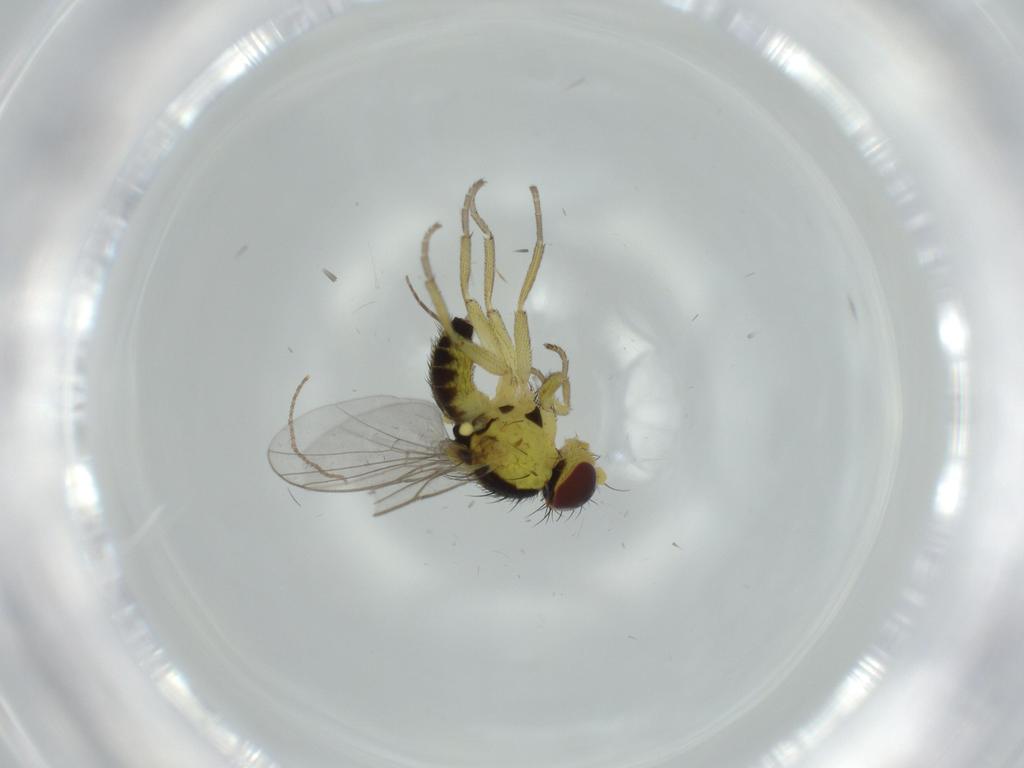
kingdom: Animalia
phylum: Arthropoda
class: Insecta
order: Diptera
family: Phoridae
